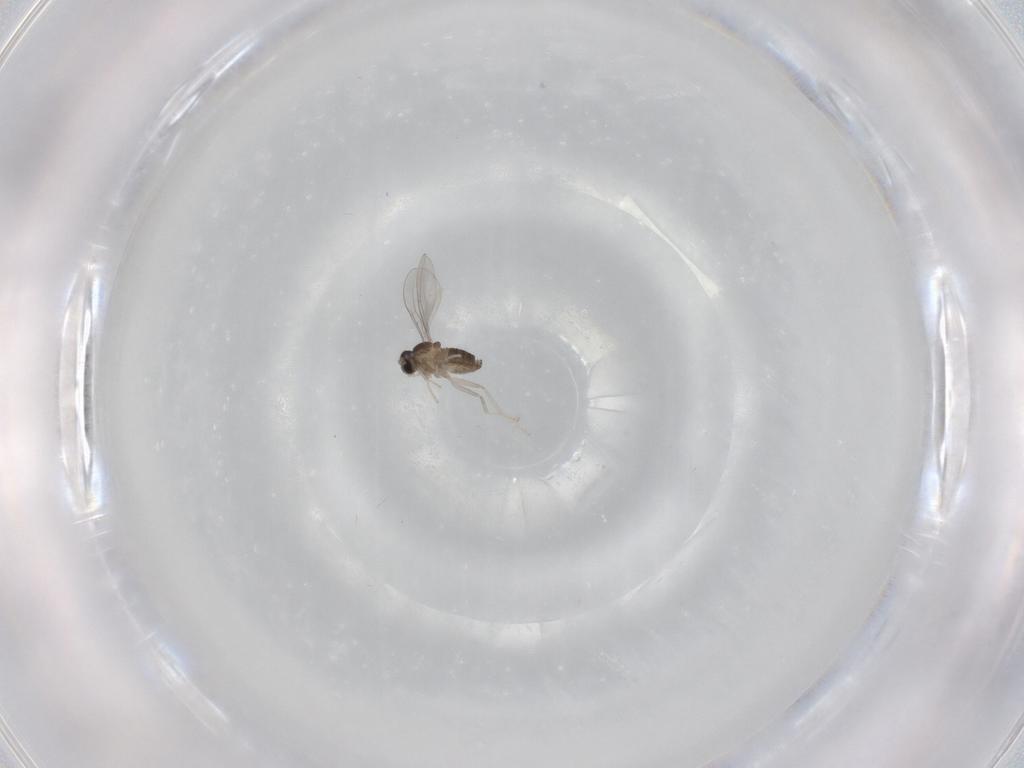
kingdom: Animalia
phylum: Arthropoda
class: Insecta
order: Diptera
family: Cecidomyiidae
